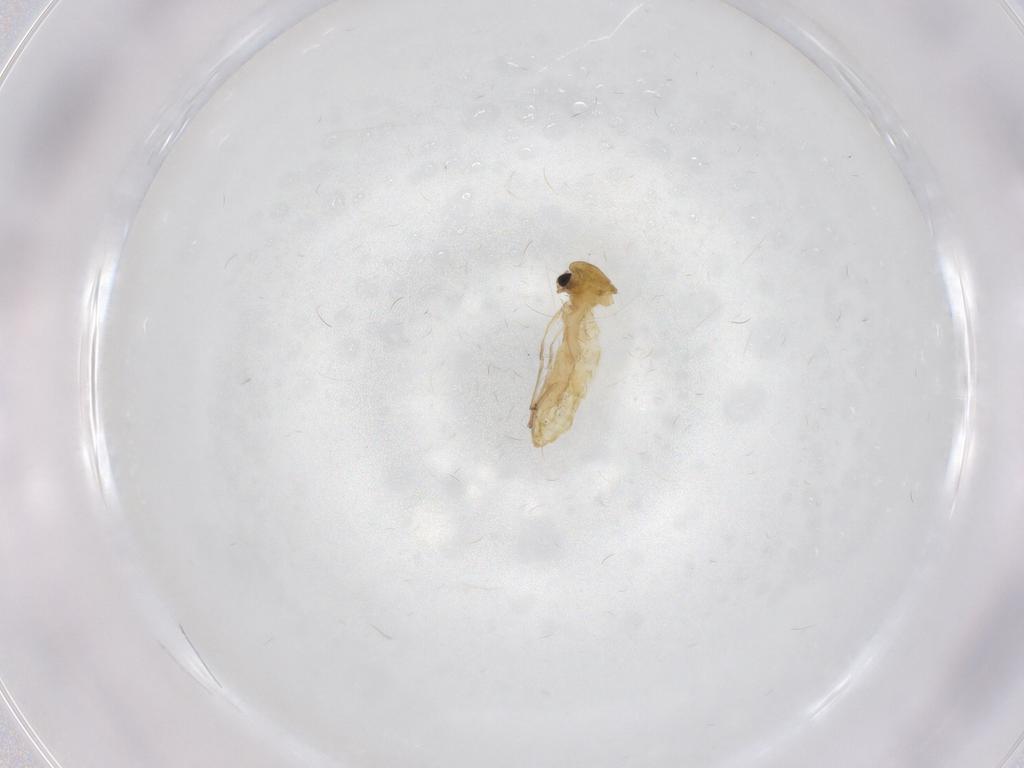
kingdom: Animalia
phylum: Arthropoda
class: Insecta
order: Diptera
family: Chironomidae
